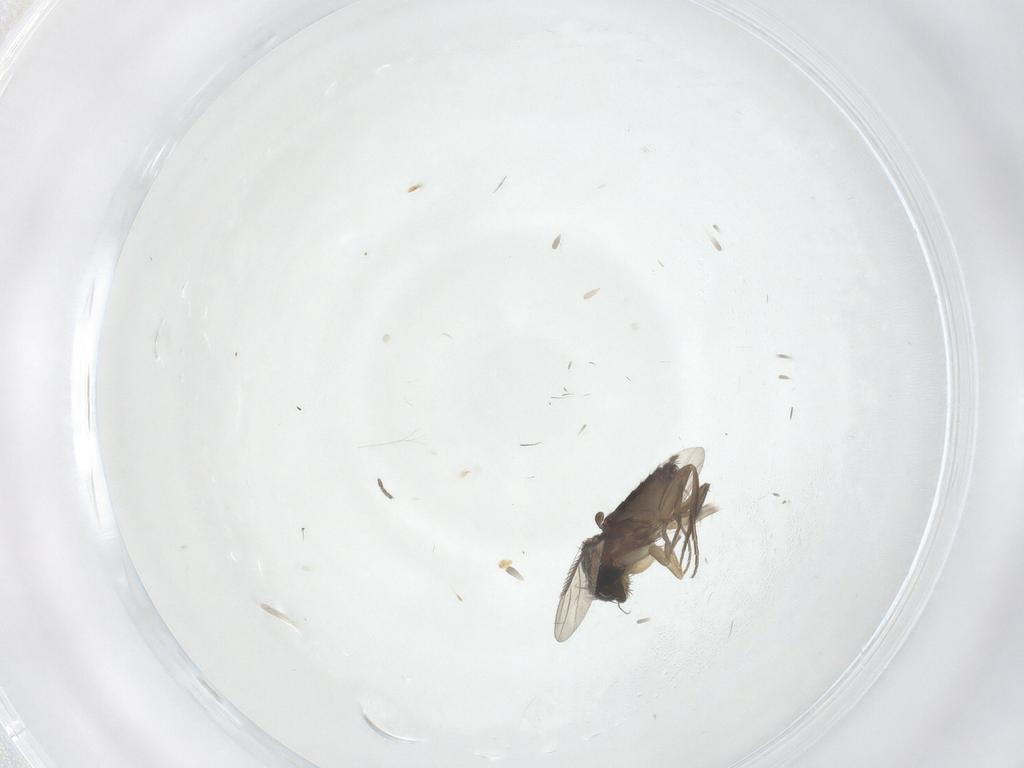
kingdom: Animalia
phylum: Arthropoda
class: Insecta
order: Diptera
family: Phoridae
